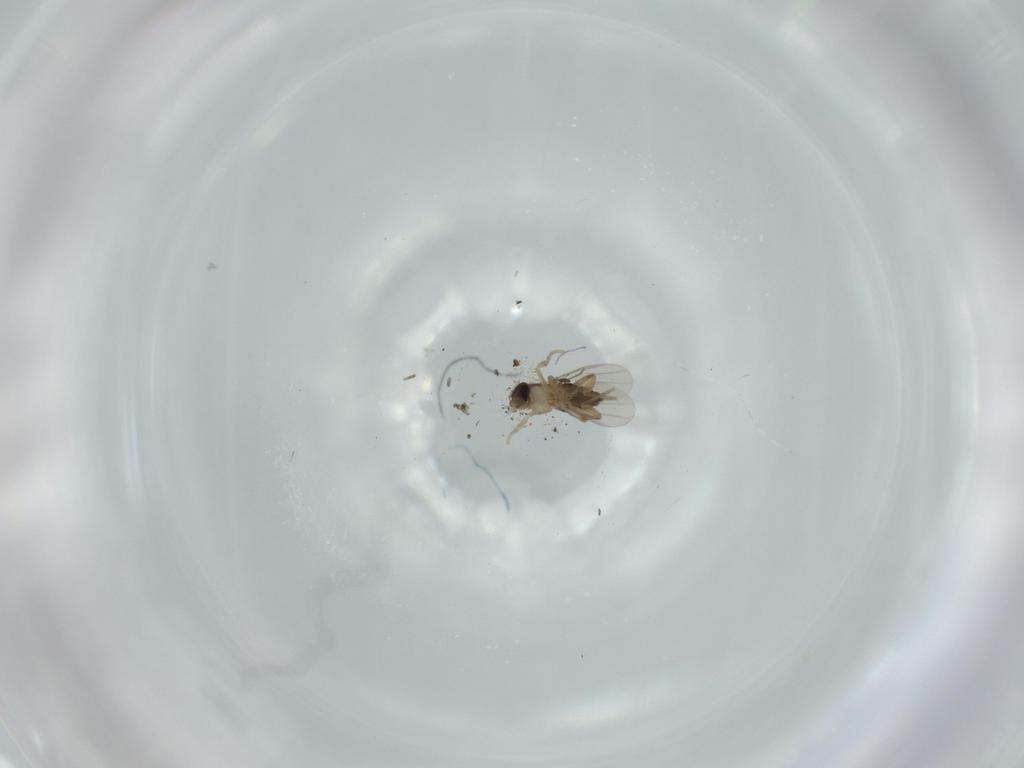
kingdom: Animalia
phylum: Arthropoda
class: Insecta
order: Diptera
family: Phoridae
